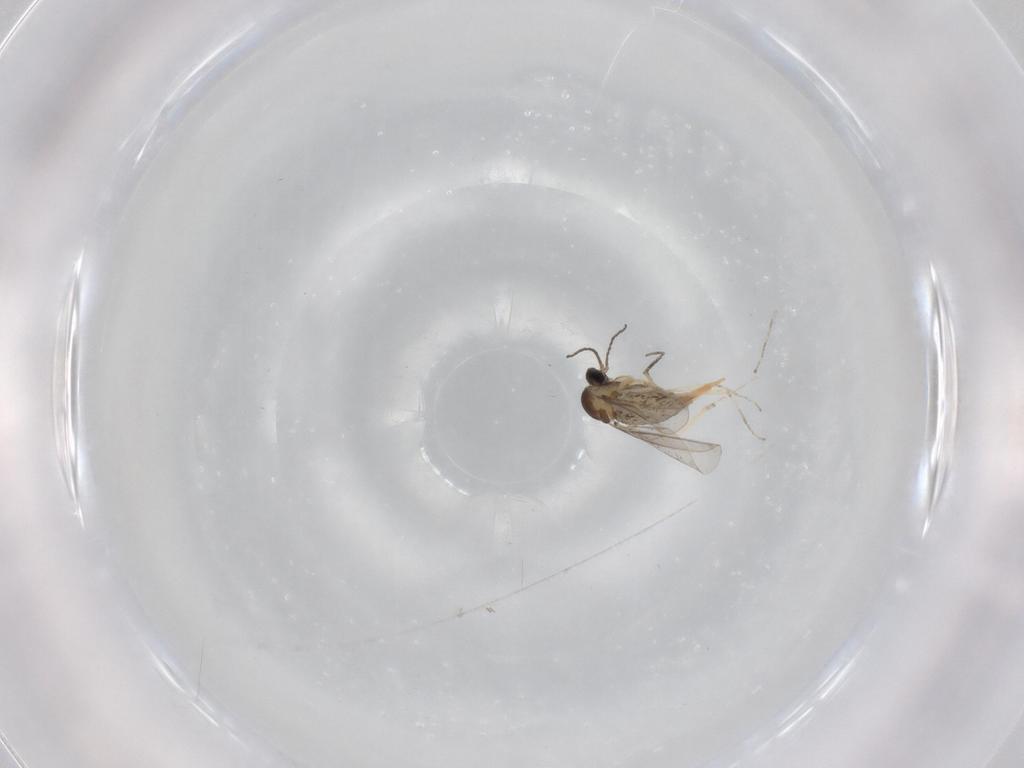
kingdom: Animalia
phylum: Arthropoda
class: Insecta
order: Diptera
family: Cecidomyiidae
